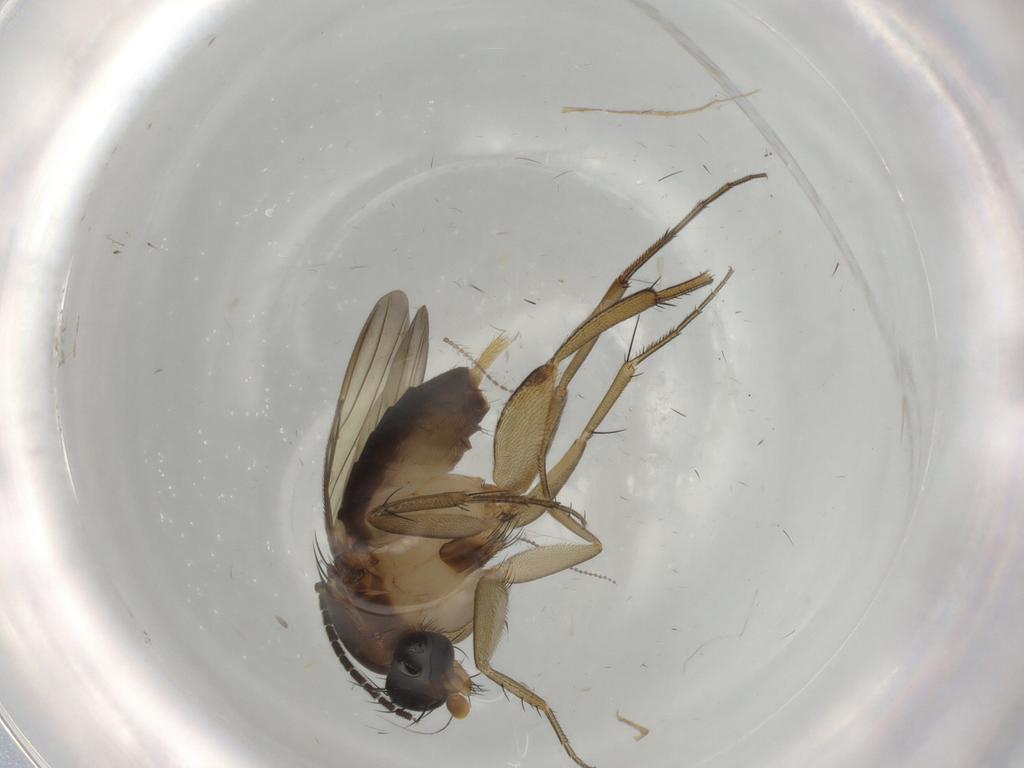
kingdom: Animalia
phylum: Arthropoda
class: Insecta
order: Diptera
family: Sciaridae
